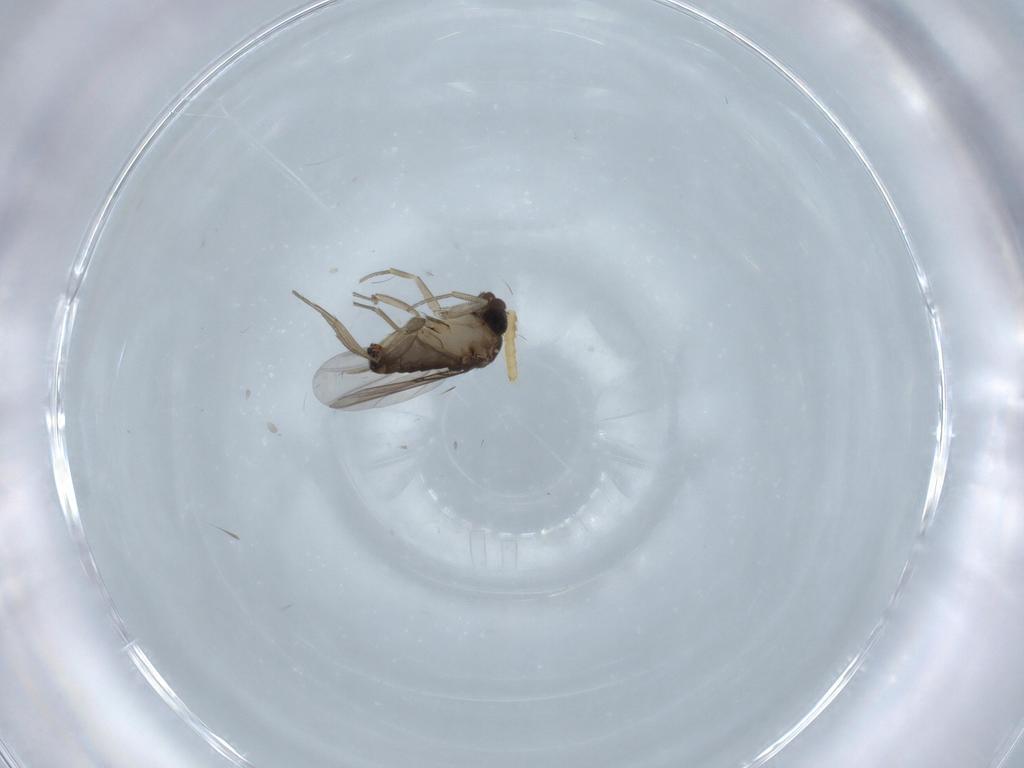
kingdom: Animalia
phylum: Arthropoda
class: Insecta
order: Diptera
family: Phoridae
